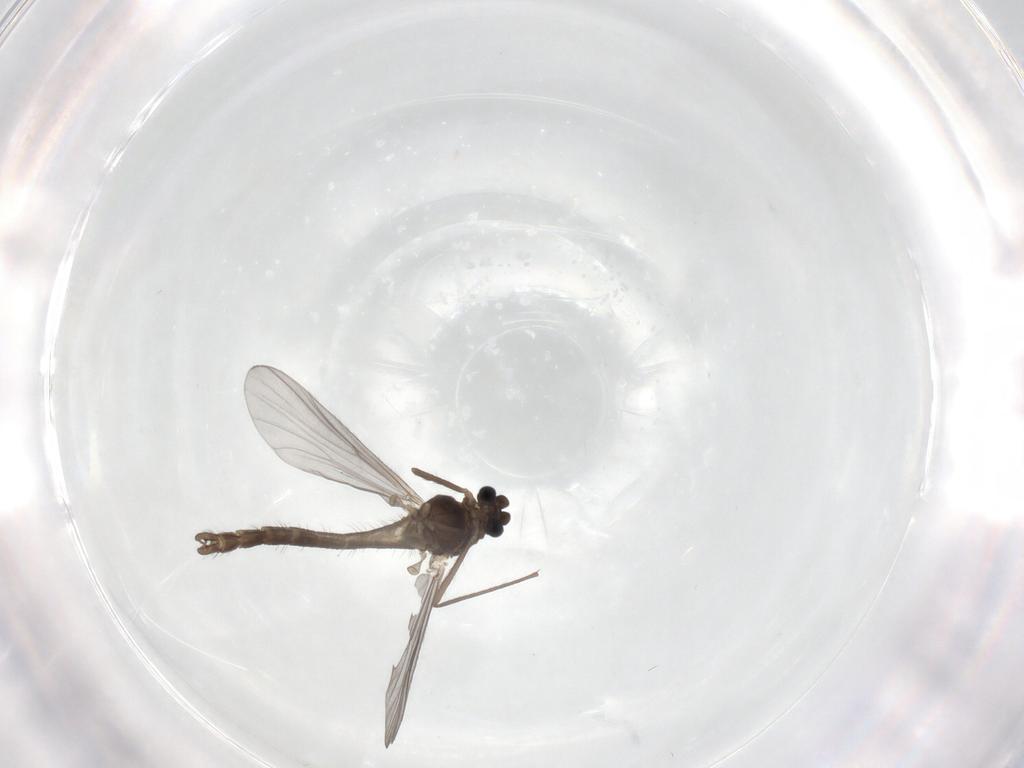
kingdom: Animalia
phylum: Arthropoda
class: Insecta
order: Diptera
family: Chironomidae
